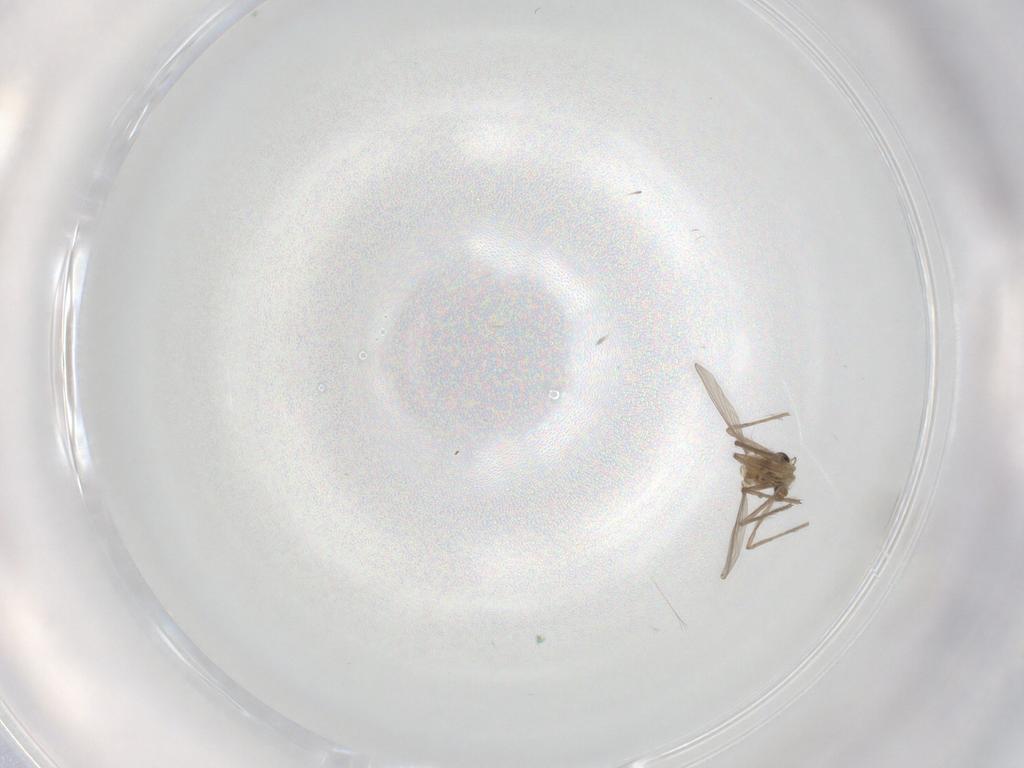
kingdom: Animalia
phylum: Arthropoda
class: Insecta
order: Diptera
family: Chironomidae
